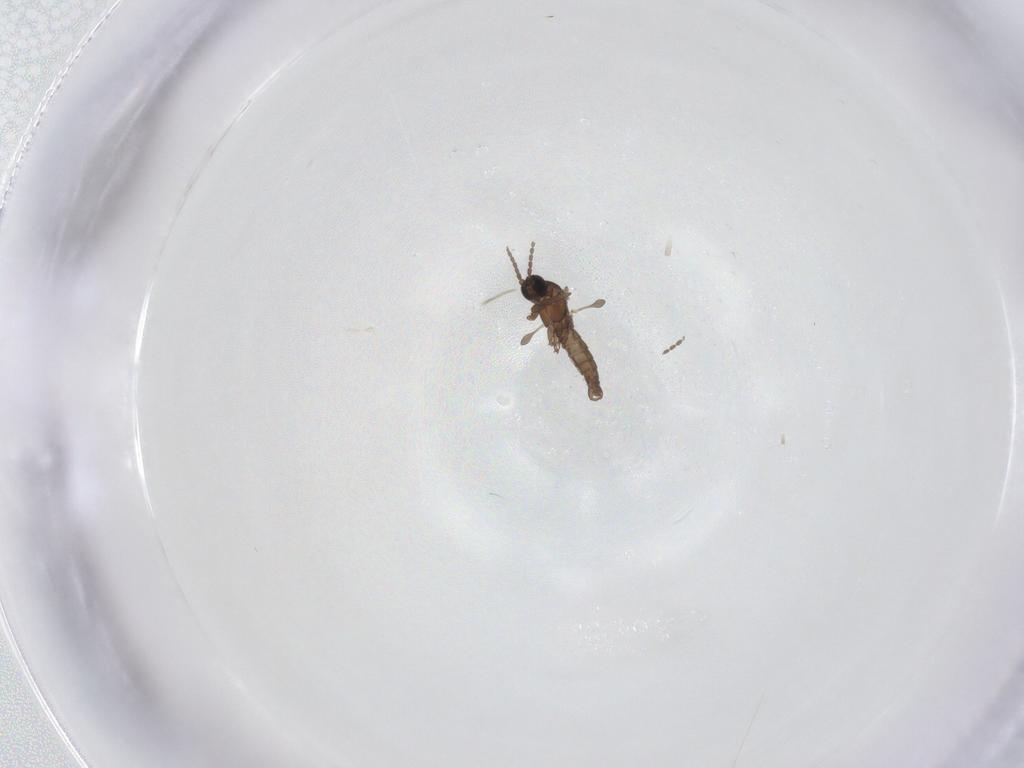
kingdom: Animalia
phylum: Arthropoda
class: Insecta
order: Diptera
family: Sciaridae
